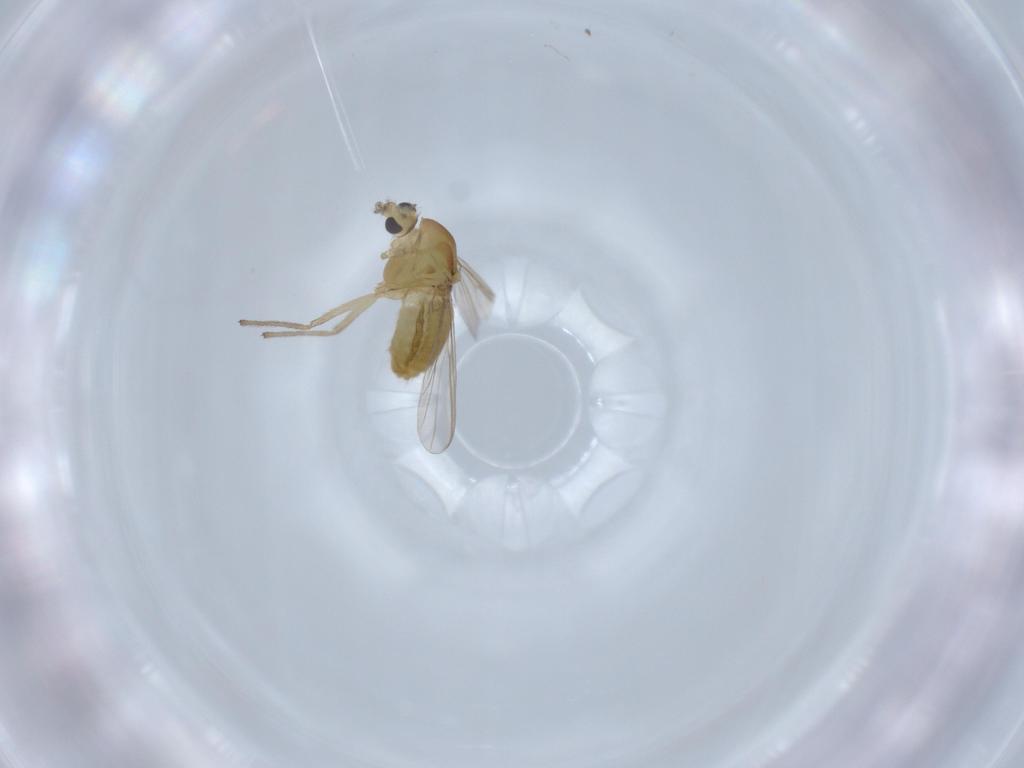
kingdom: Animalia
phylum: Arthropoda
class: Insecta
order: Diptera
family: Chironomidae
